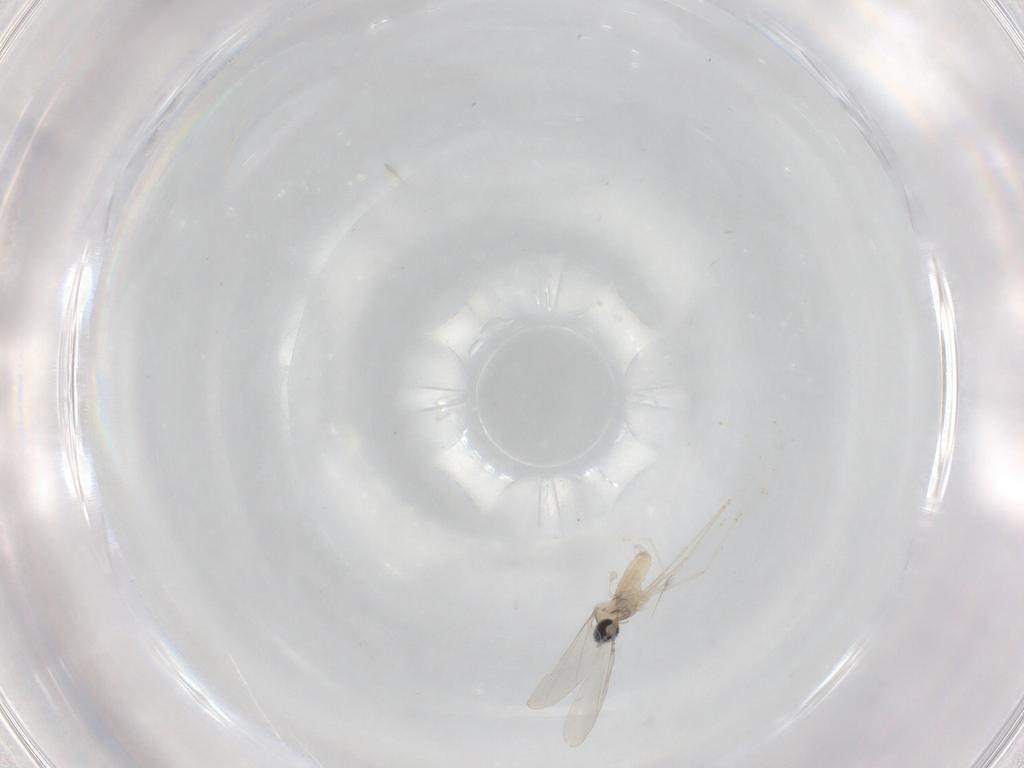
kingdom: Animalia
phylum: Arthropoda
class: Insecta
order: Diptera
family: Cecidomyiidae
